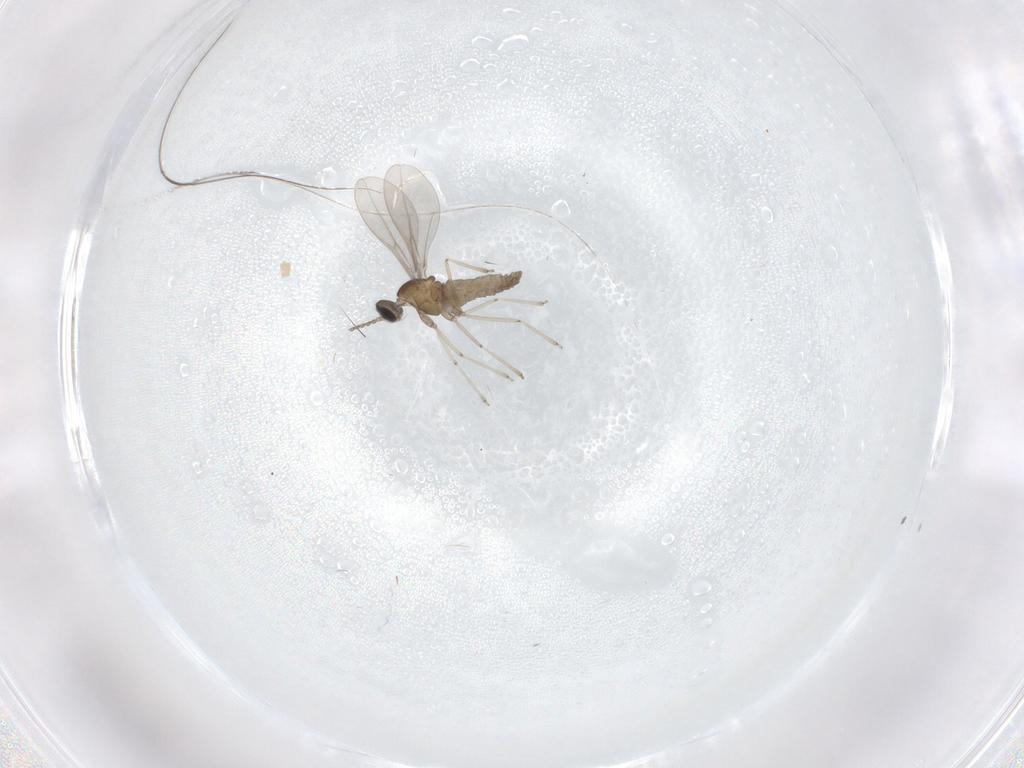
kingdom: Animalia
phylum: Arthropoda
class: Insecta
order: Diptera
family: Cecidomyiidae
